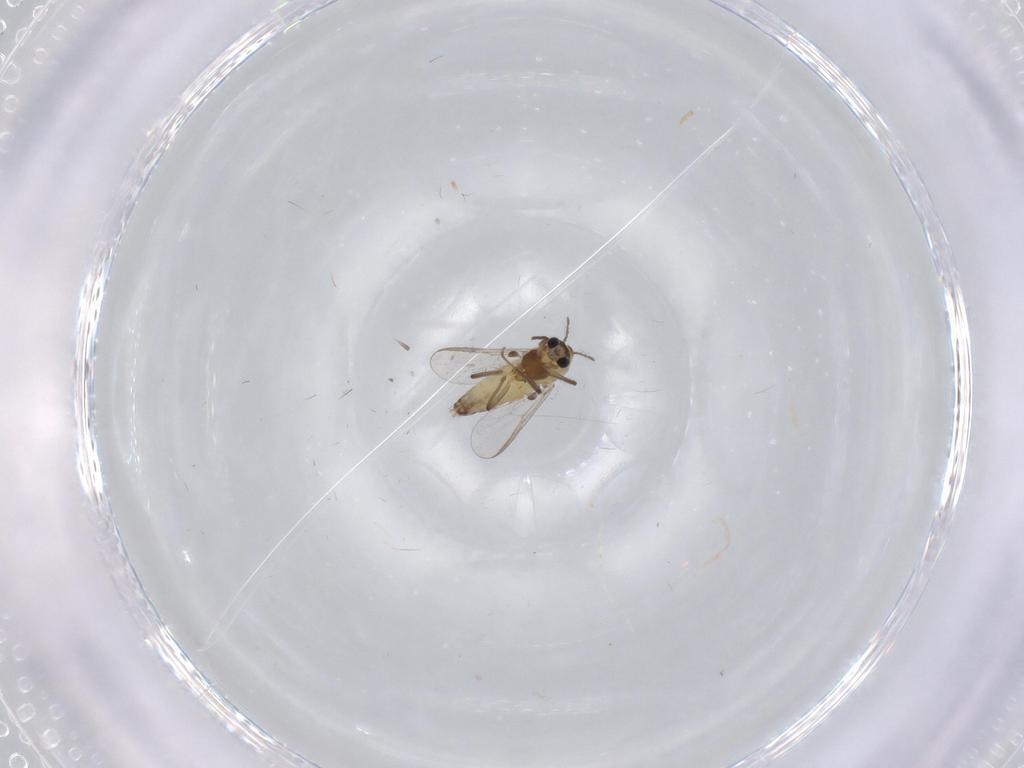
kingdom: Animalia
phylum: Arthropoda
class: Insecta
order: Diptera
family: Chironomidae
